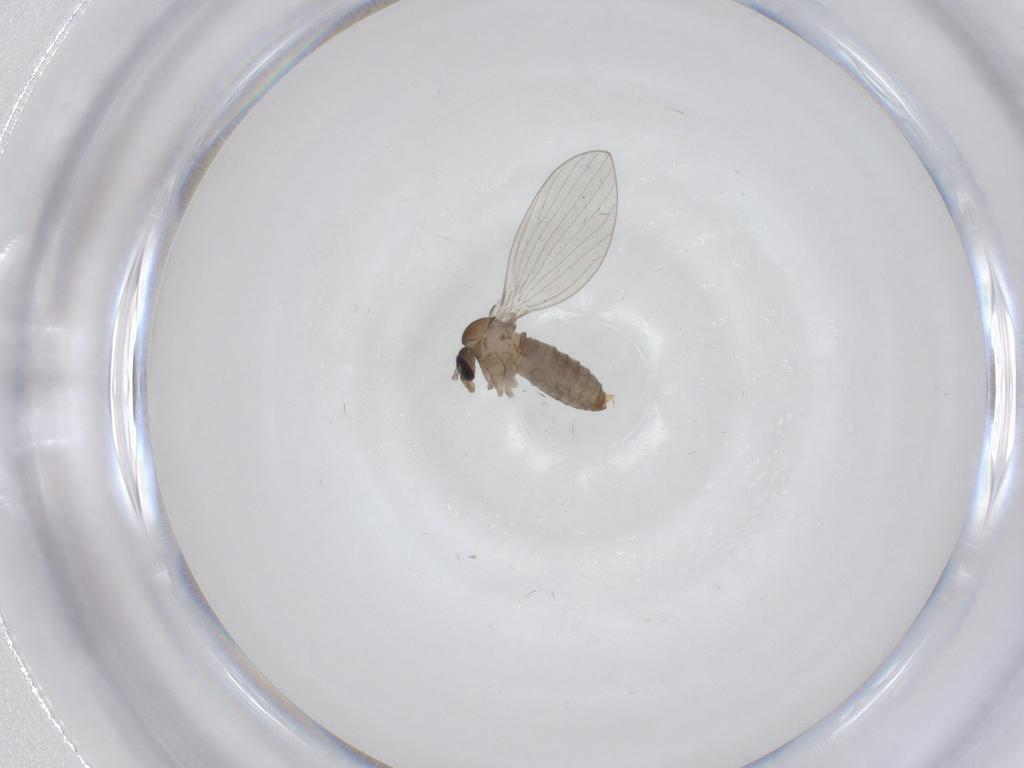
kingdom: Animalia
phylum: Arthropoda
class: Insecta
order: Diptera
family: Psychodidae
